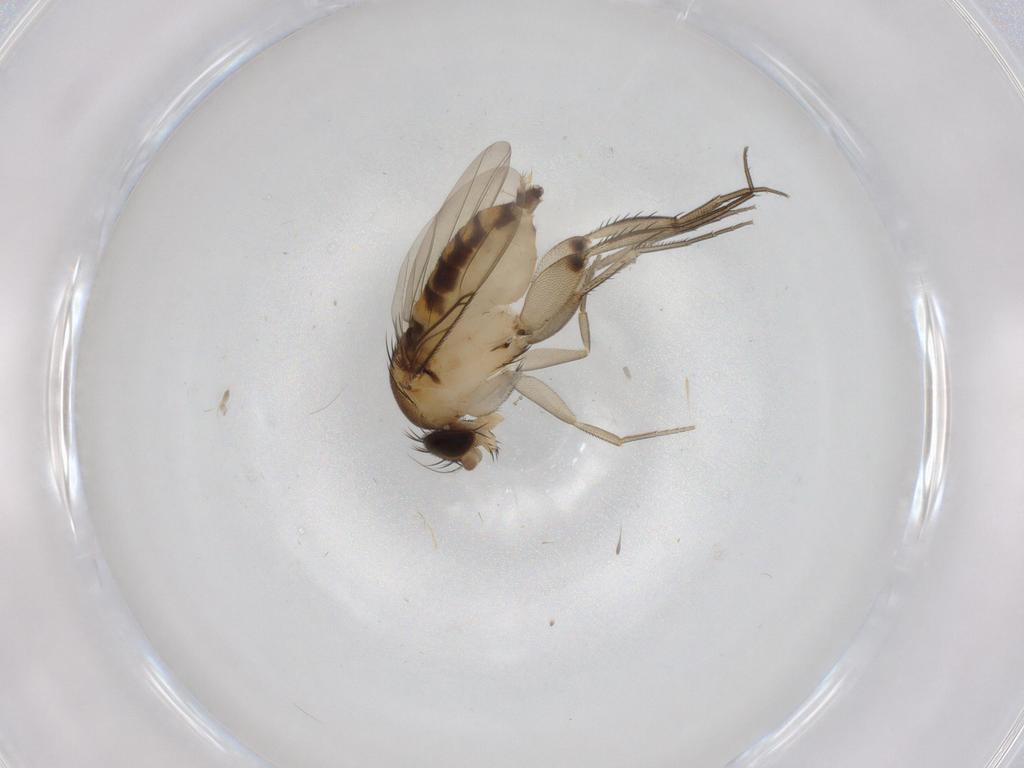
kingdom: Animalia
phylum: Arthropoda
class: Insecta
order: Diptera
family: Phoridae
